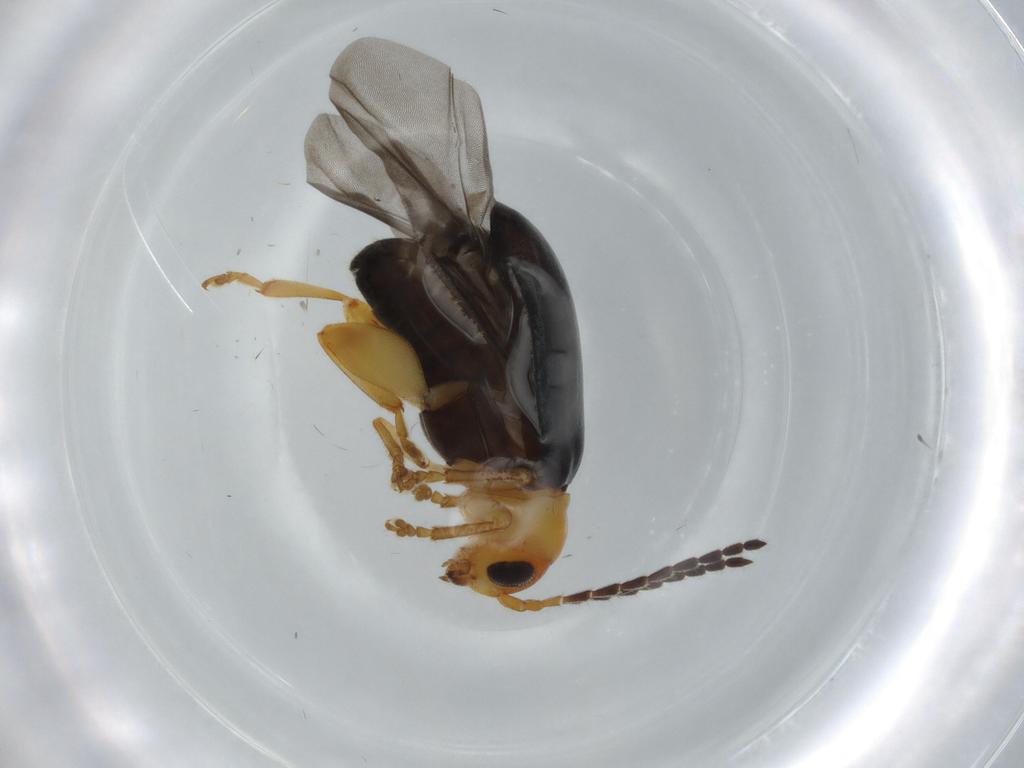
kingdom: Animalia
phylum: Arthropoda
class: Insecta
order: Coleoptera
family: Chrysomelidae
